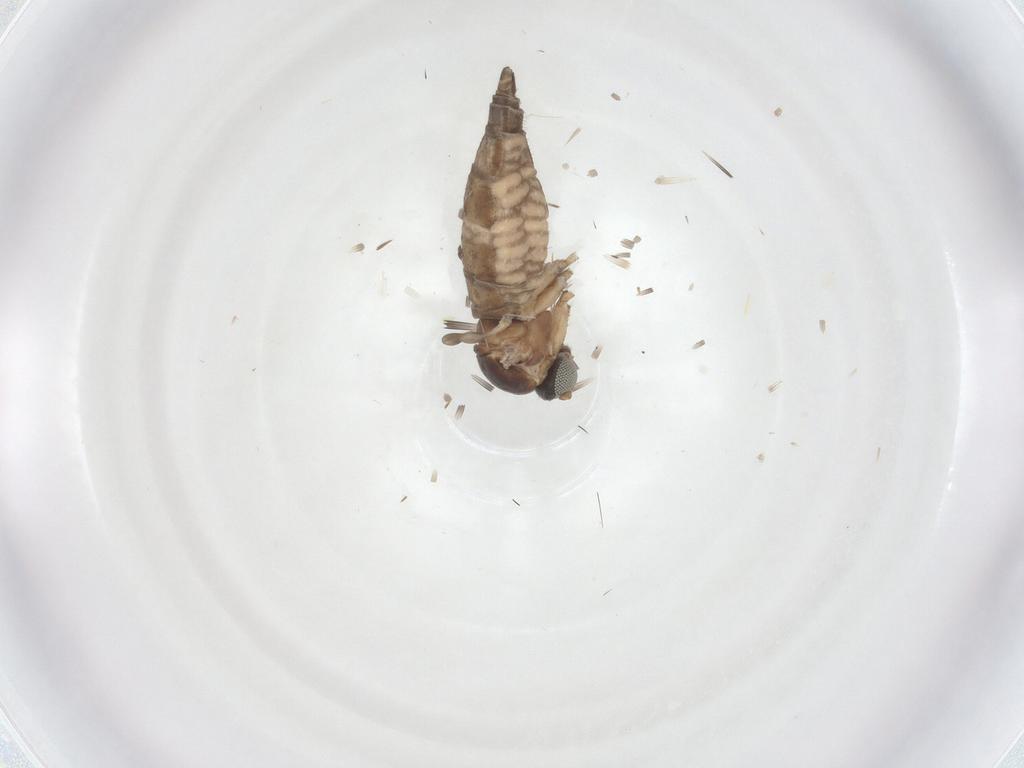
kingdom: Animalia
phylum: Arthropoda
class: Insecta
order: Diptera
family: Sciaridae
